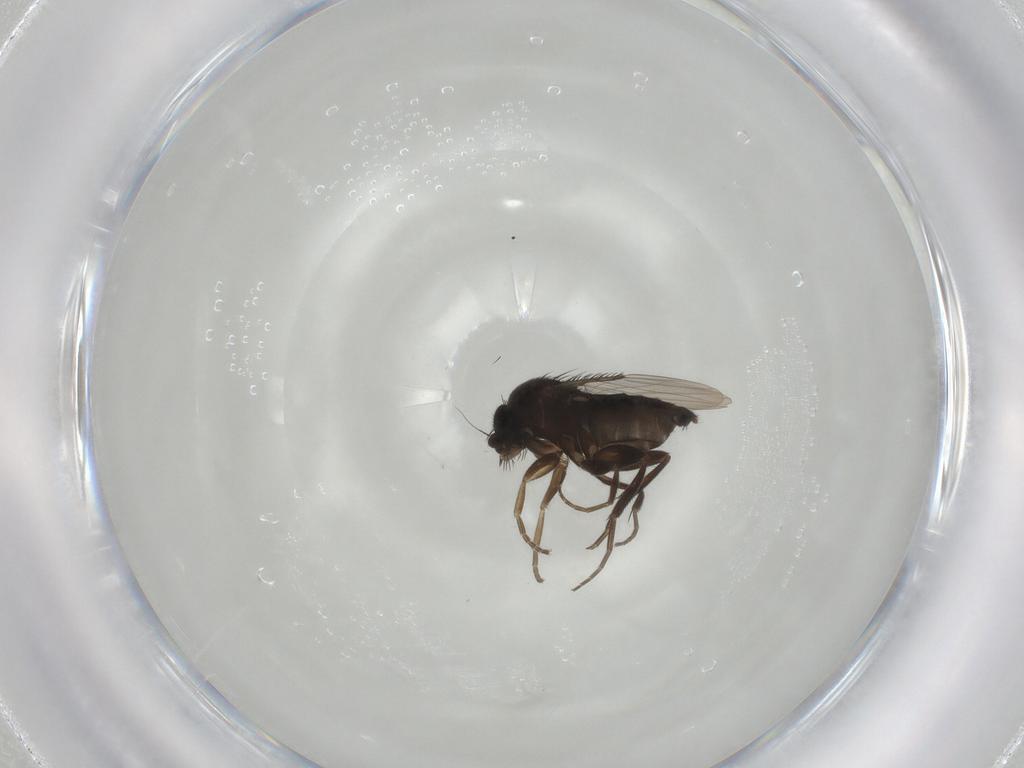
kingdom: Animalia
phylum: Arthropoda
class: Insecta
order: Diptera
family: Phoridae
